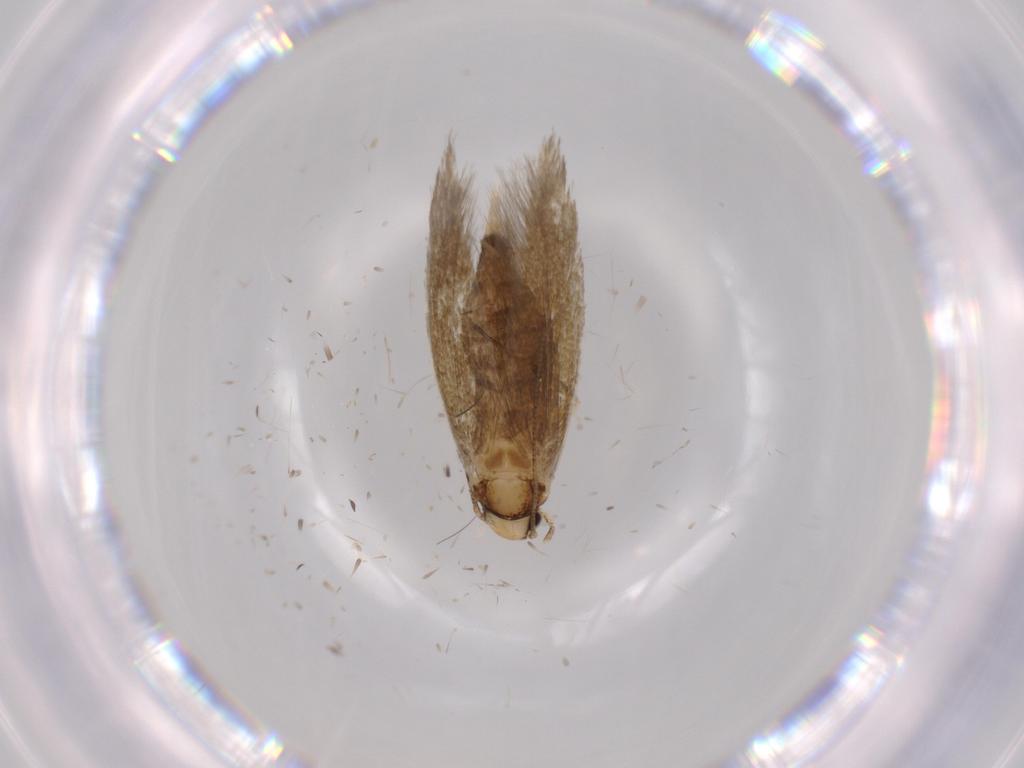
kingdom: Animalia
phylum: Arthropoda
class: Insecta
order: Lepidoptera
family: Tineidae
